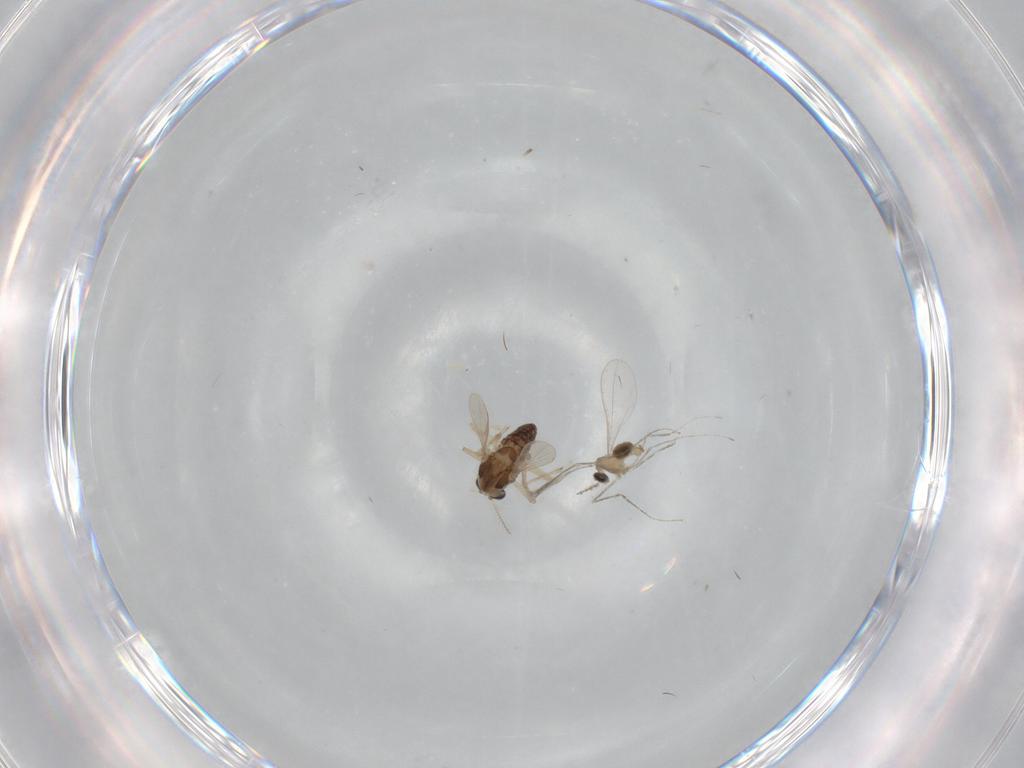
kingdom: Animalia
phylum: Arthropoda
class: Insecta
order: Diptera
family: Cecidomyiidae
